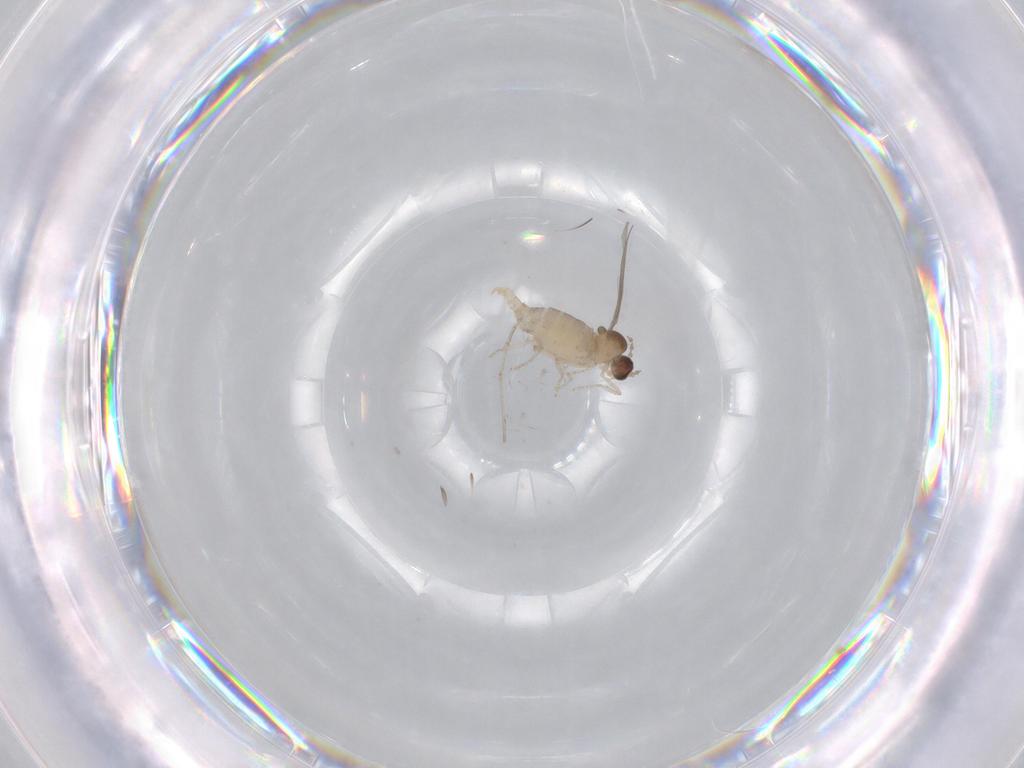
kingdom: Animalia
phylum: Arthropoda
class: Insecta
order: Diptera
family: Cecidomyiidae
